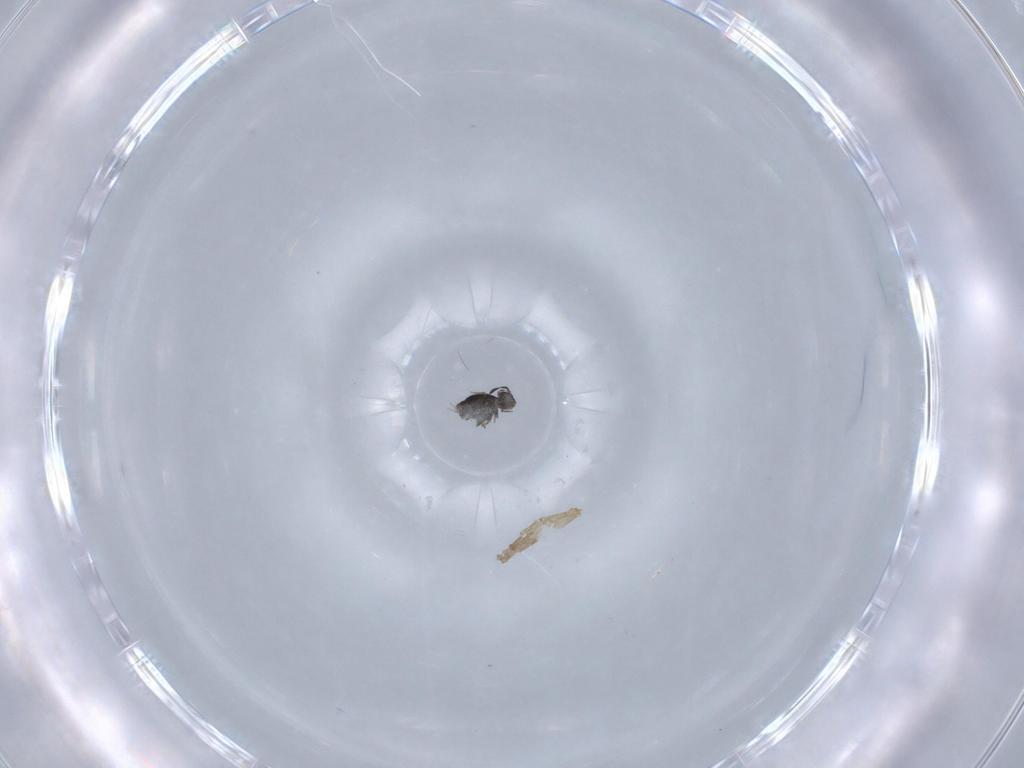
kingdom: Animalia
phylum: Arthropoda
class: Collembola
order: Symphypleona
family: Katiannidae
